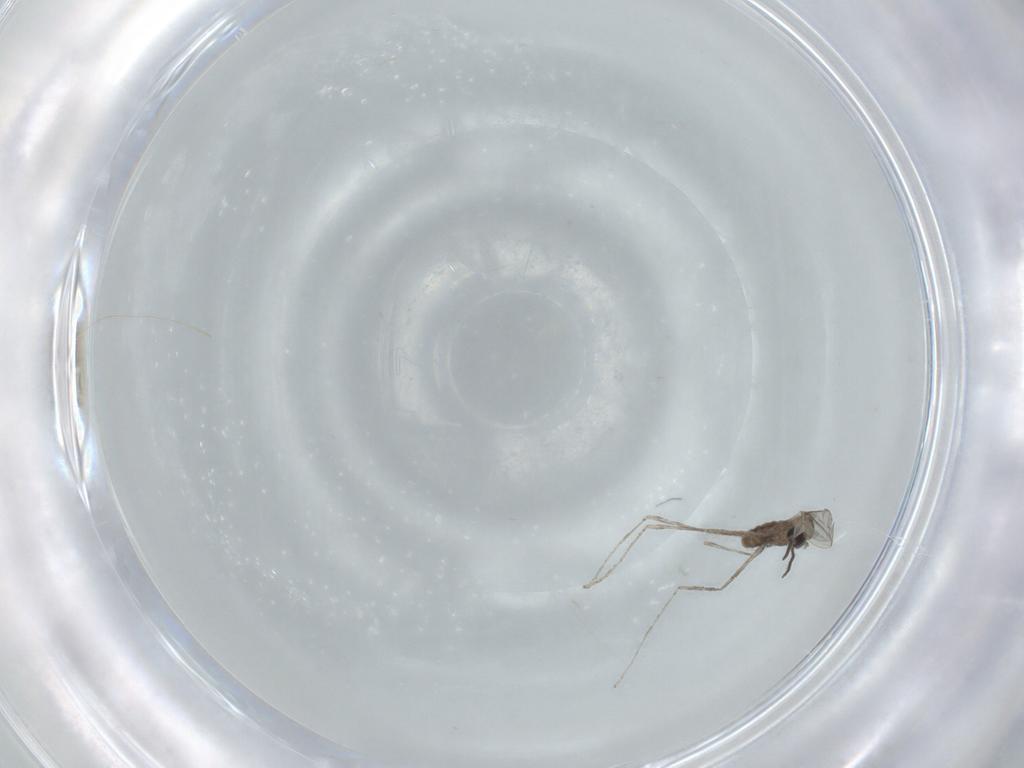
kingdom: Animalia
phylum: Arthropoda
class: Insecta
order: Diptera
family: Cecidomyiidae
